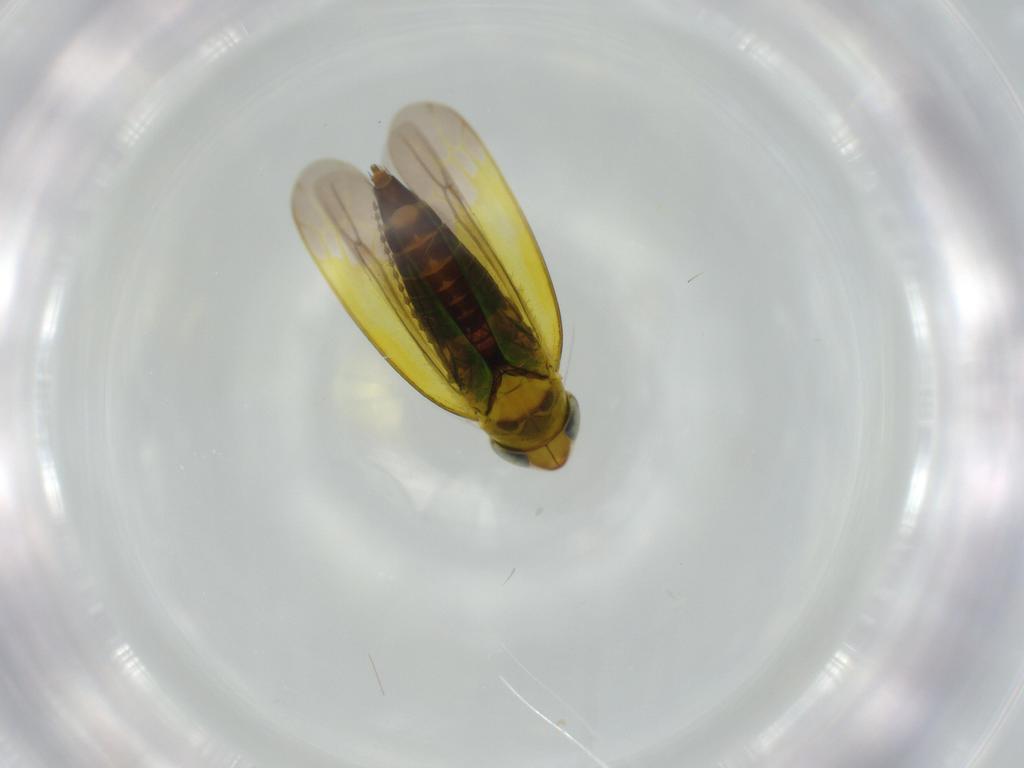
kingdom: Animalia
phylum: Arthropoda
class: Insecta
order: Hemiptera
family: Cicadellidae
